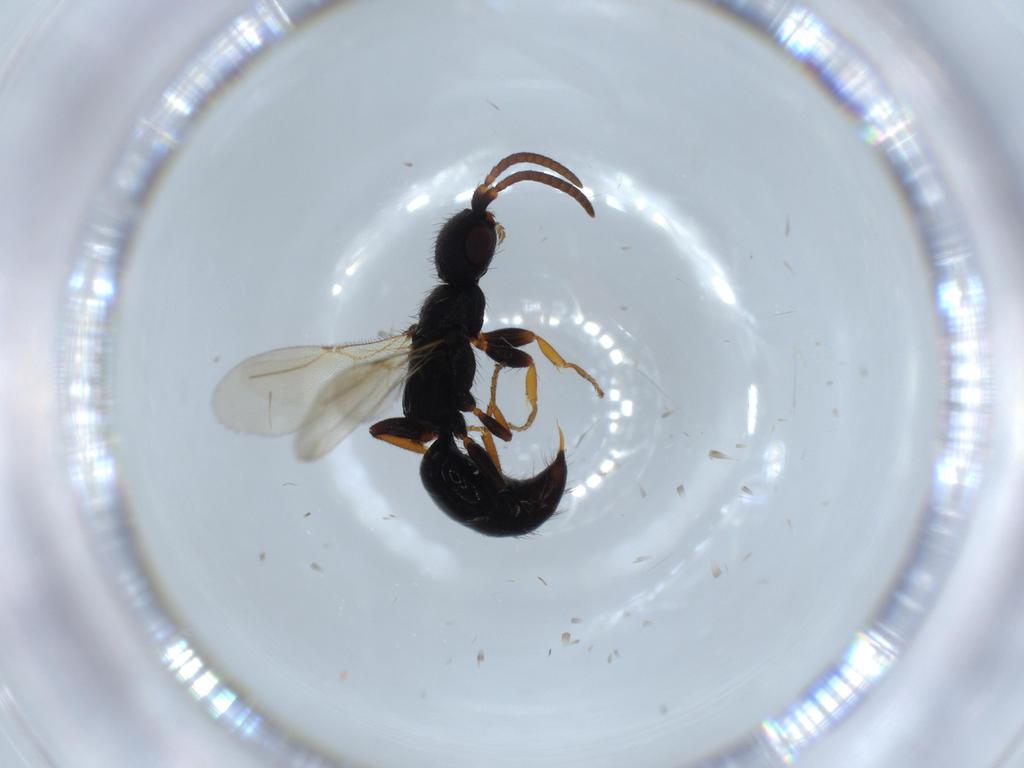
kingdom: Animalia
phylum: Arthropoda
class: Insecta
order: Hymenoptera
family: Bethylidae
